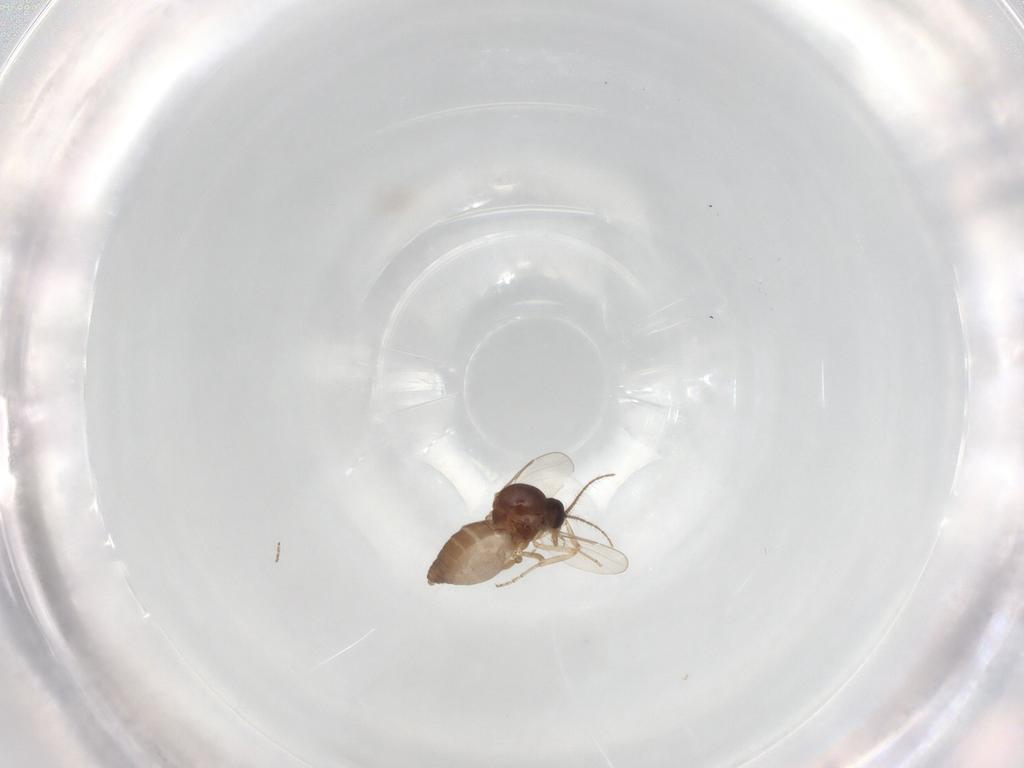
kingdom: Animalia
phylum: Arthropoda
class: Insecta
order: Diptera
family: Ceratopogonidae
